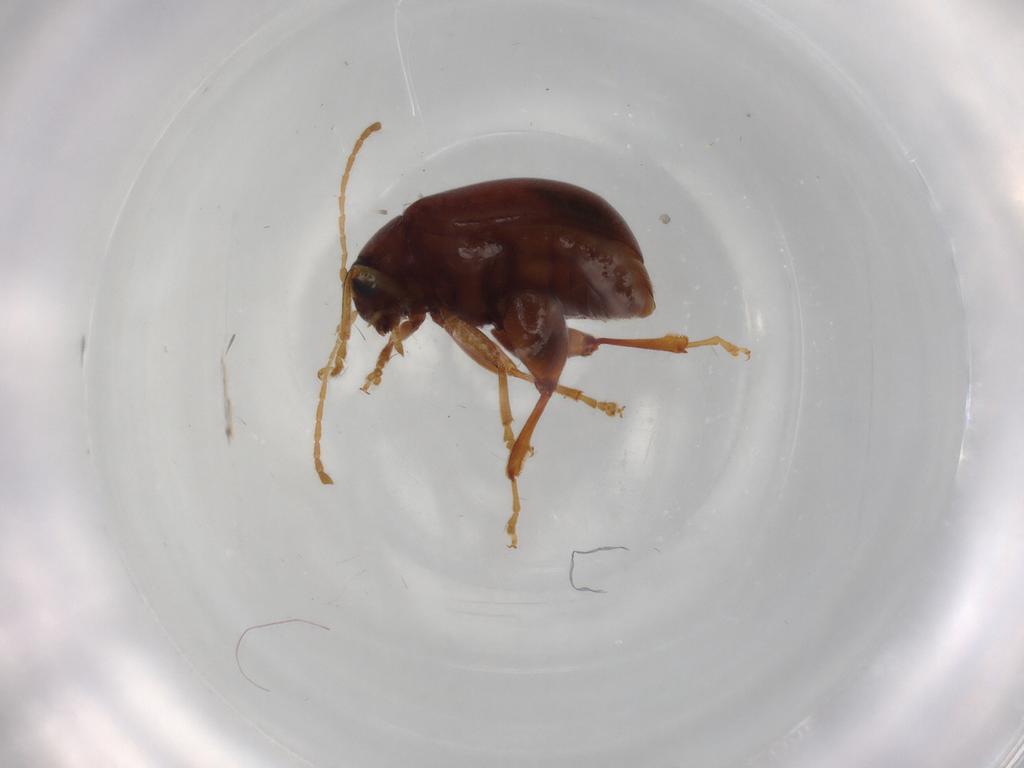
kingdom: Animalia
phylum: Arthropoda
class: Insecta
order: Coleoptera
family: Chrysomelidae
